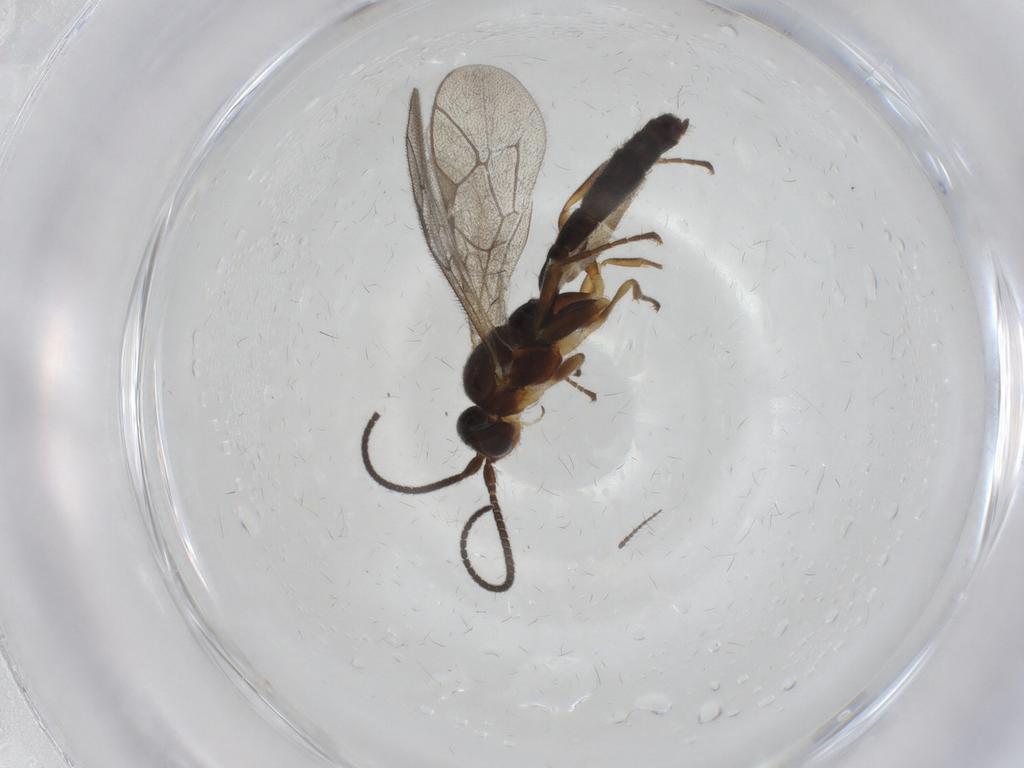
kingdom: Animalia
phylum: Arthropoda
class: Insecta
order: Hymenoptera
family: Ichneumonidae
